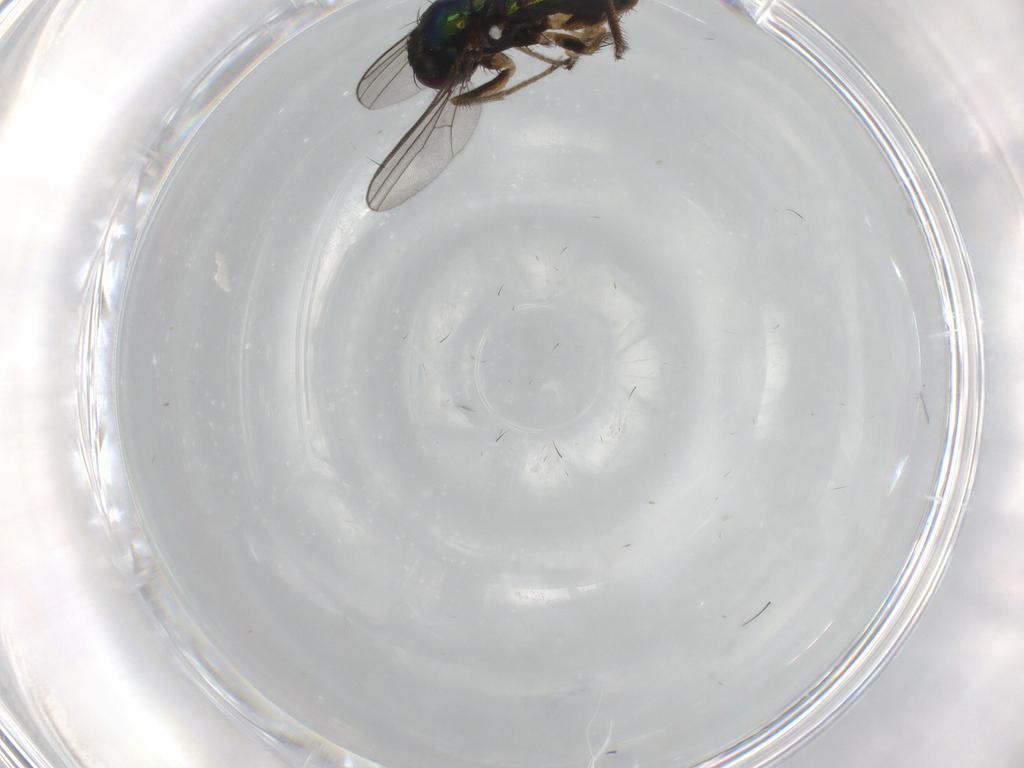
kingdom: Animalia
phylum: Arthropoda
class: Insecta
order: Diptera
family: Dolichopodidae
